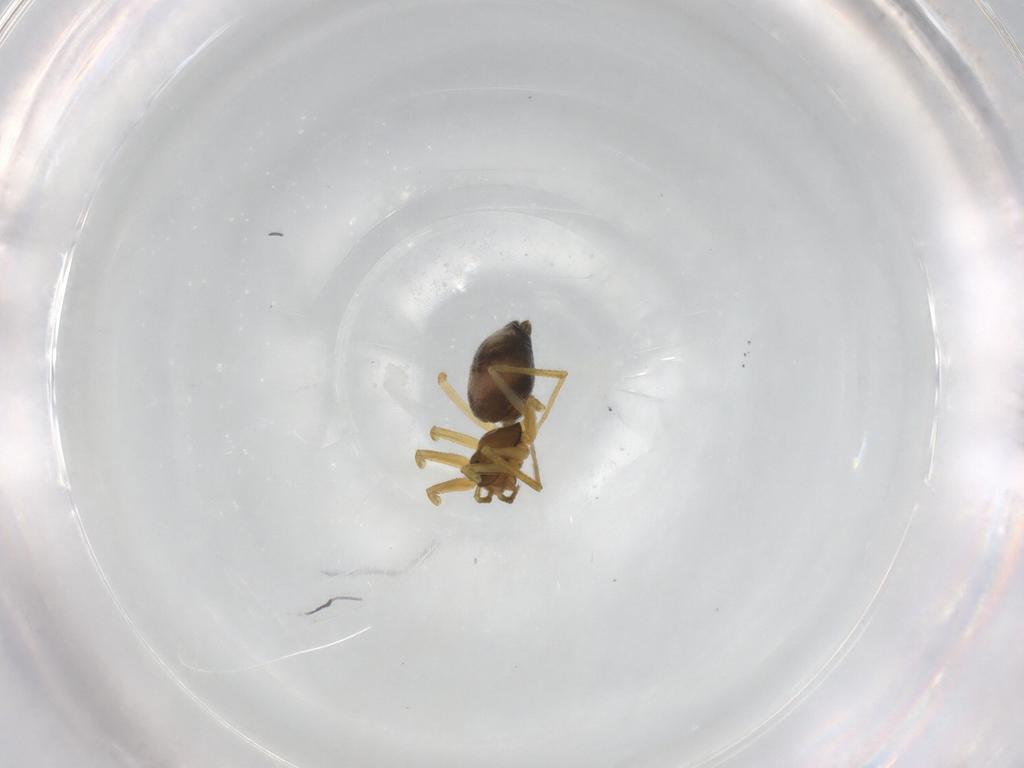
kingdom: Animalia
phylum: Arthropoda
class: Arachnida
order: Araneae
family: Linyphiidae
